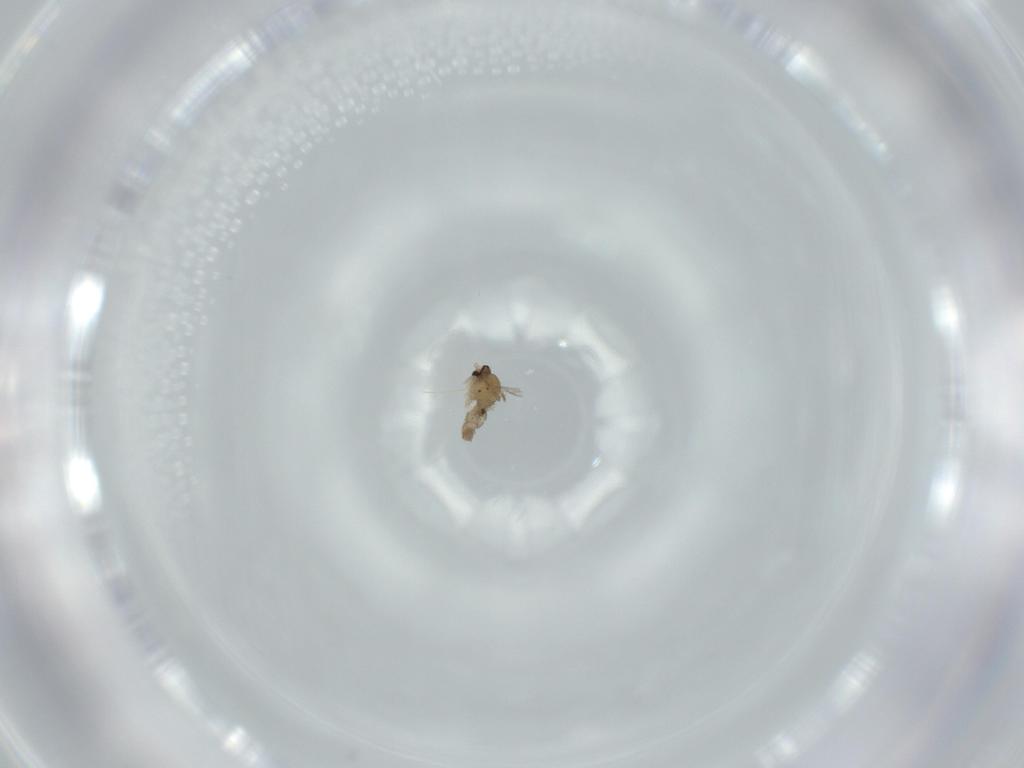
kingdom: Animalia
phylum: Arthropoda
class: Insecta
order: Diptera
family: Cecidomyiidae
